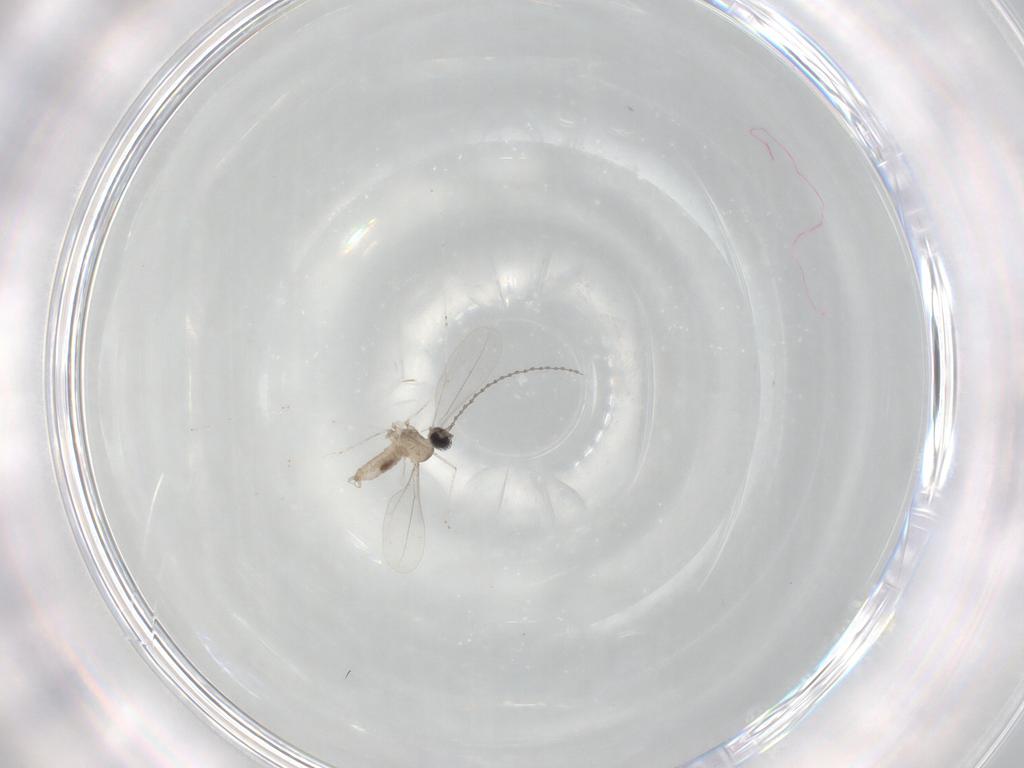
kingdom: Animalia
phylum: Arthropoda
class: Insecta
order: Diptera
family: Cecidomyiidae
